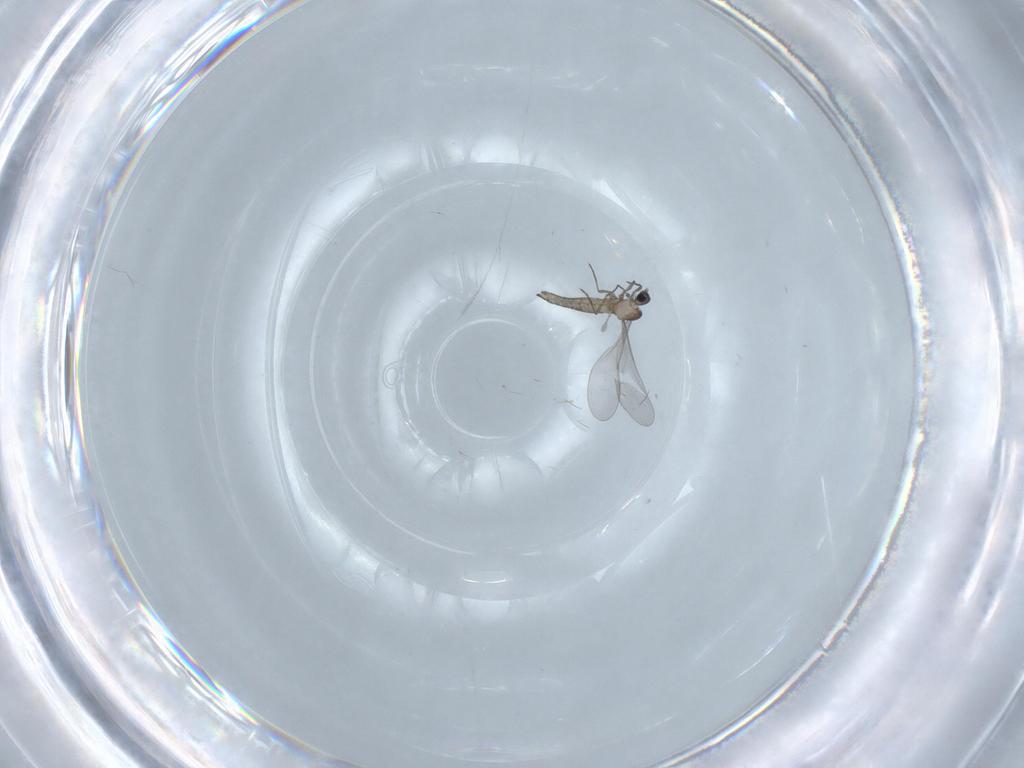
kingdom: Animalia
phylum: Arthropoda
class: Insecta
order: Diptera
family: Cecidomyiidae
